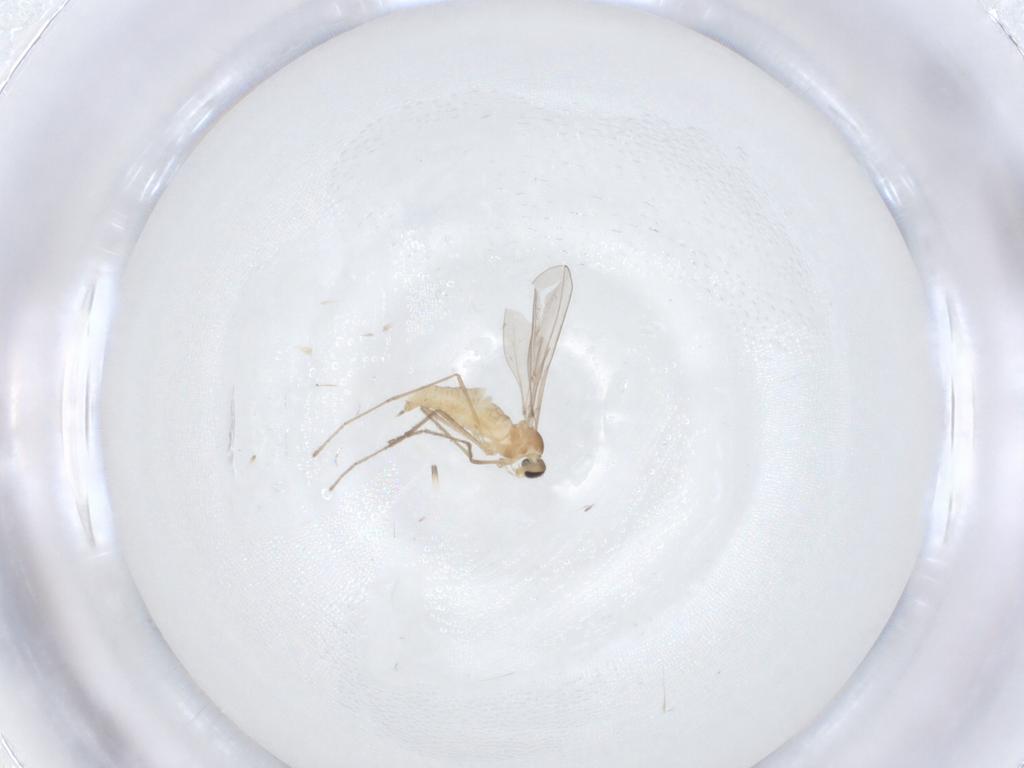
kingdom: Animalia
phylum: Arthropoda
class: Insecta
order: Diptera
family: Cecidomyiidae
